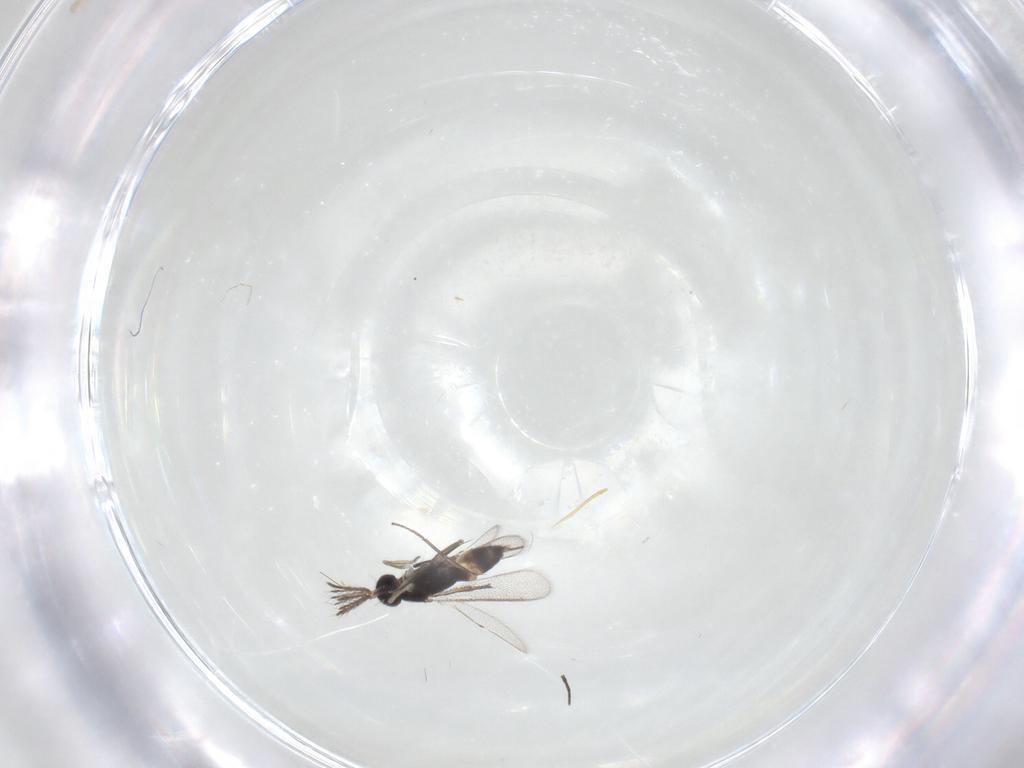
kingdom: Animalia
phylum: Arthropoda
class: Insecta
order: Hymenoptera
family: Eulophidae
